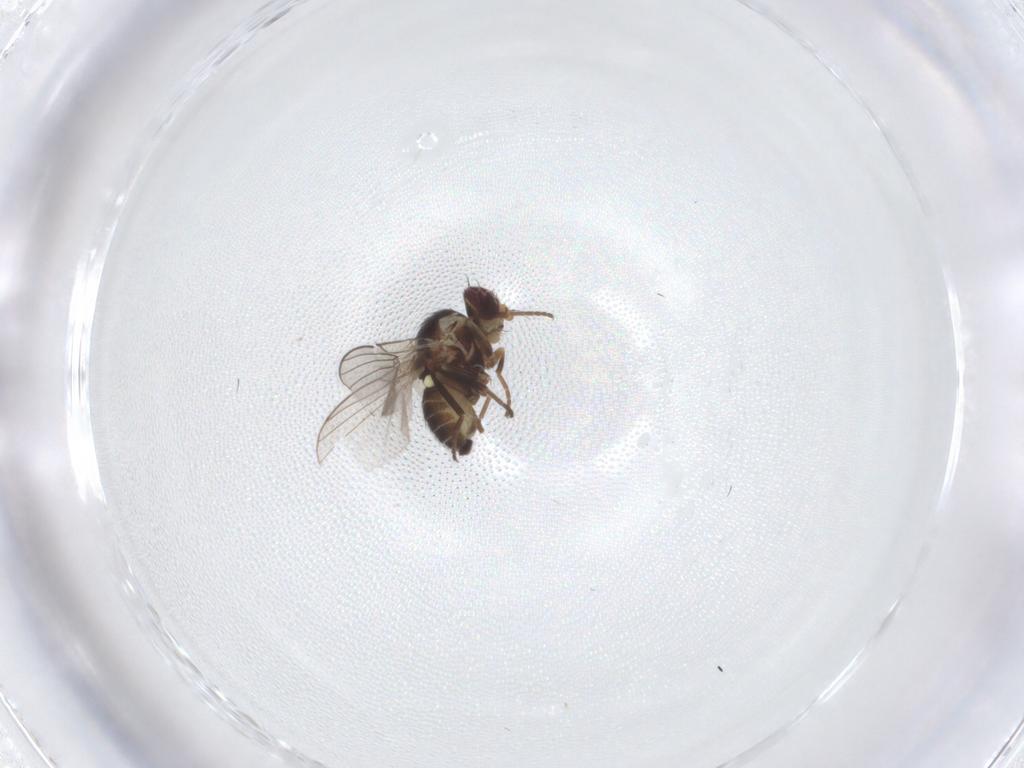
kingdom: Animalia
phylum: Arthropoda
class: Insecta
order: Diptera
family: Agromyzidae
